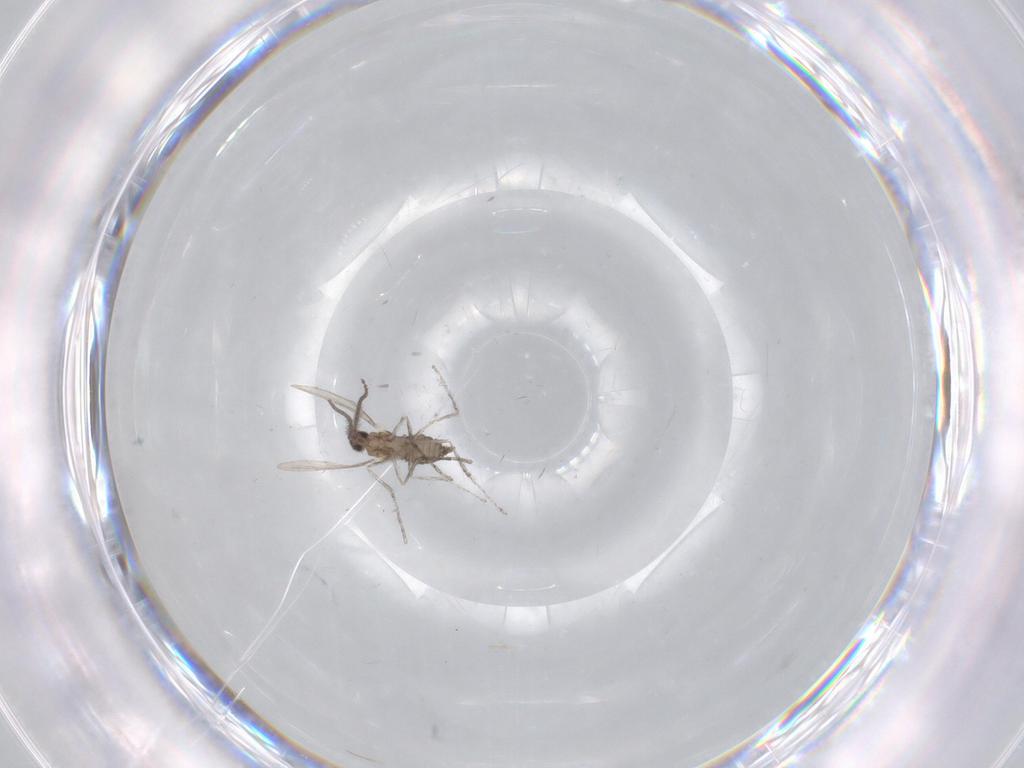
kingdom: Animalia
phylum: Arthropoda
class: Insecta
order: Diptera
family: Cecidomyiidae
